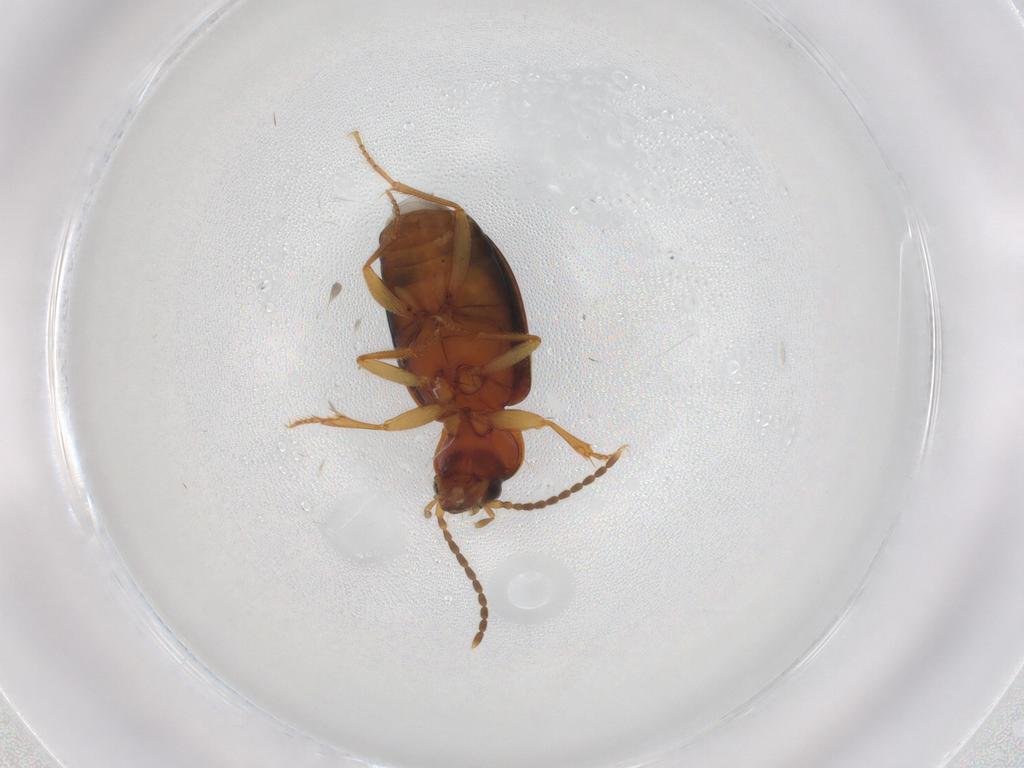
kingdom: Animalia
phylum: Arthropoda
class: Insecta
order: Coleoptera
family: Carabidae
